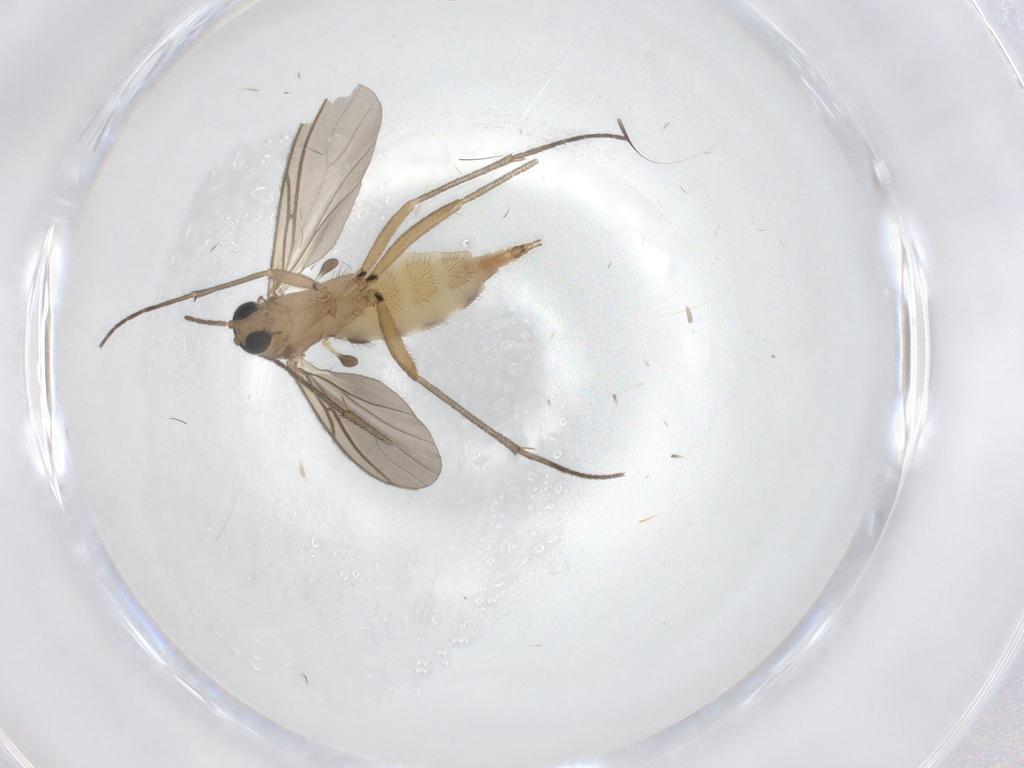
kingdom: Animalia
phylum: Arthropoda
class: Insecta
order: Diptera
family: Sciaridae
